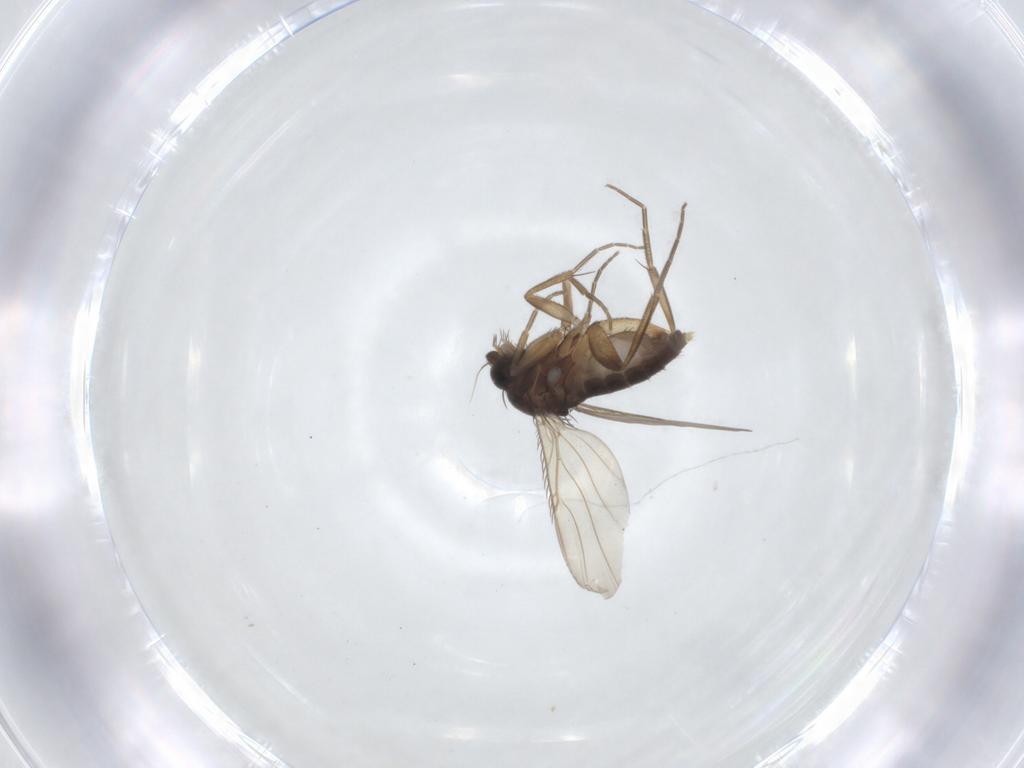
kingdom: Animalia
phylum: Arthropoda
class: Insecta
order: Diptera
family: Phoridae
